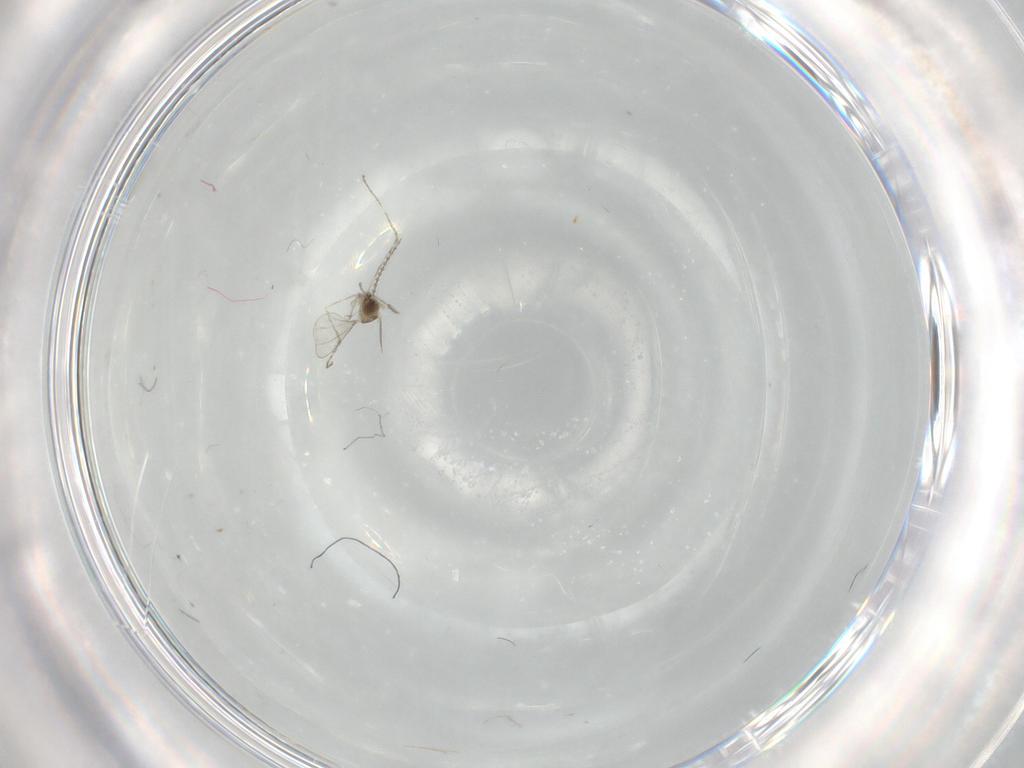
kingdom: Animalia
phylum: Arthropoda
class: Insecta
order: Diptera
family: Cecidomyiidae
